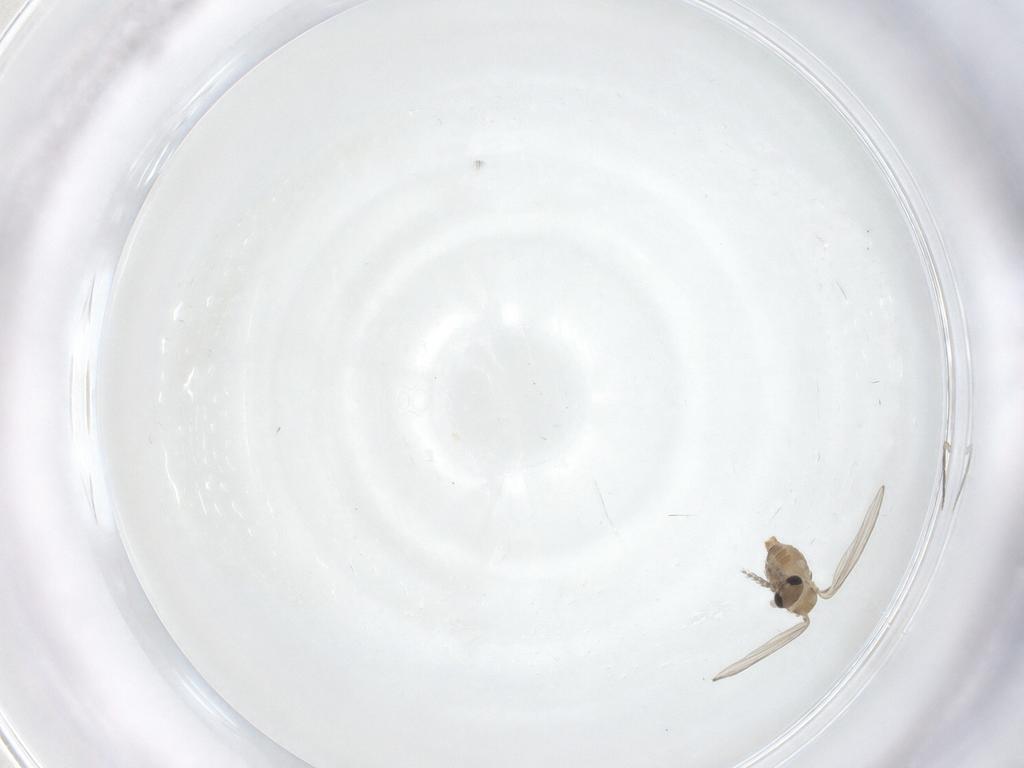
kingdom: Animalia
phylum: Arthropoda
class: Insecta
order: Diptera
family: Psychodidae
